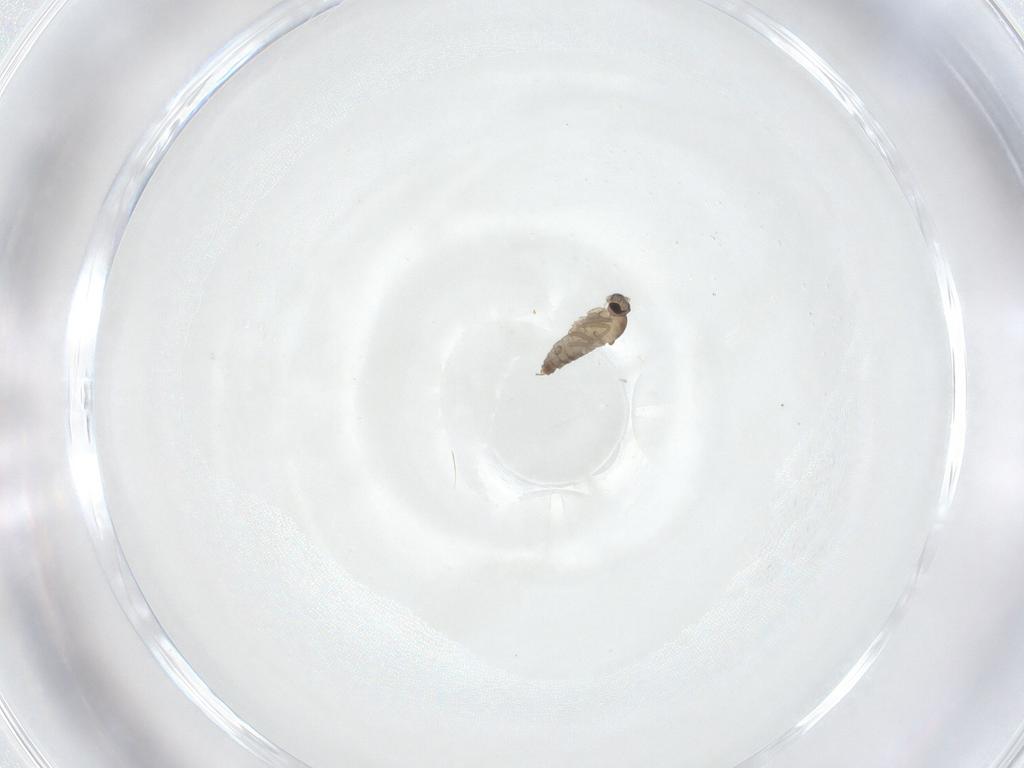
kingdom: Animalia
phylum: Arthropoda
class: Insecta
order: Diptera
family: Cecidomyiidae
